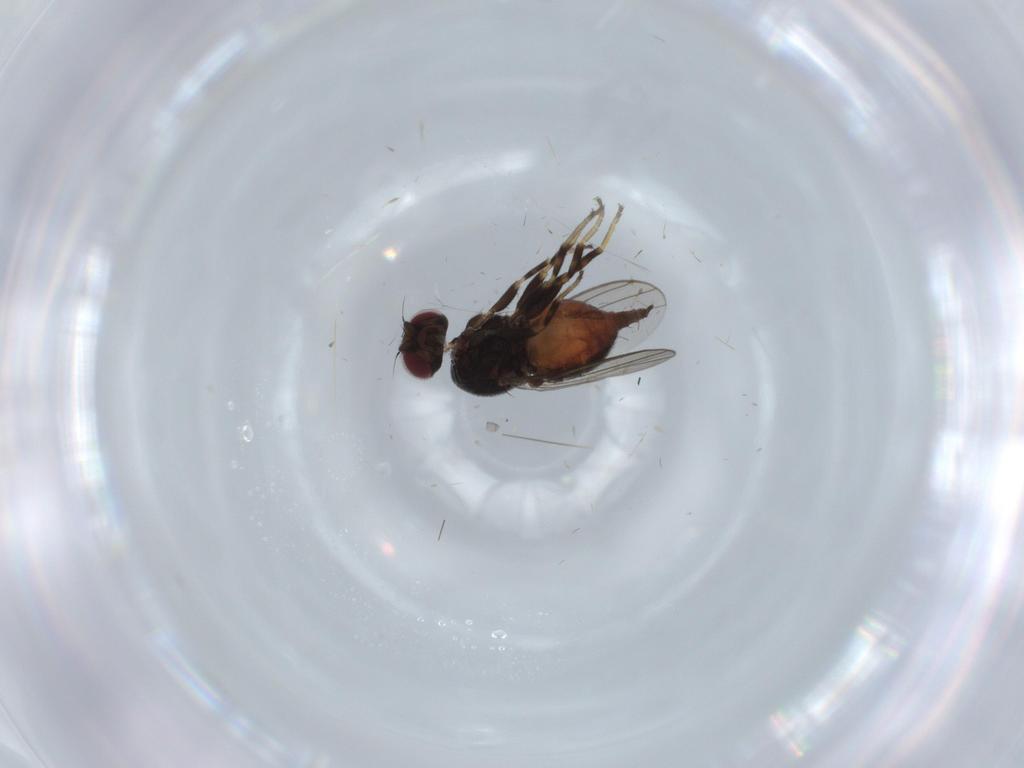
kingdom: Animalia
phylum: Arthropoda
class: Insecta
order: Diptera
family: Chloropidae
